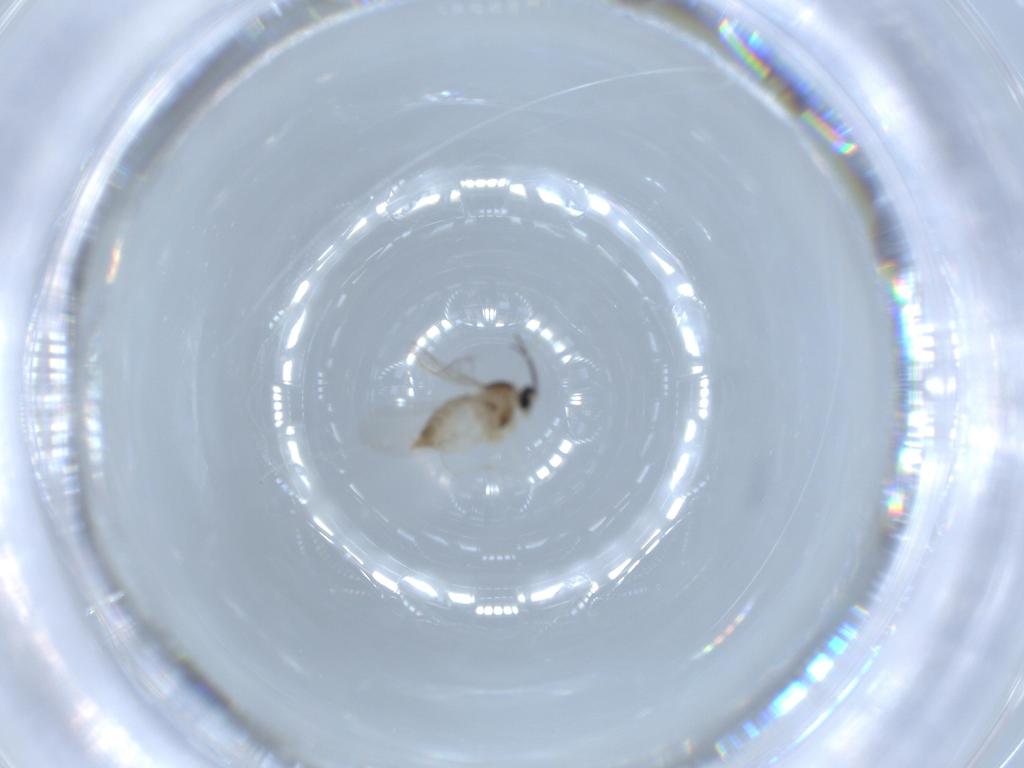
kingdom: Animalia
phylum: Arthropoda
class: Insecta
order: Diptera
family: Cecidomyiidae
